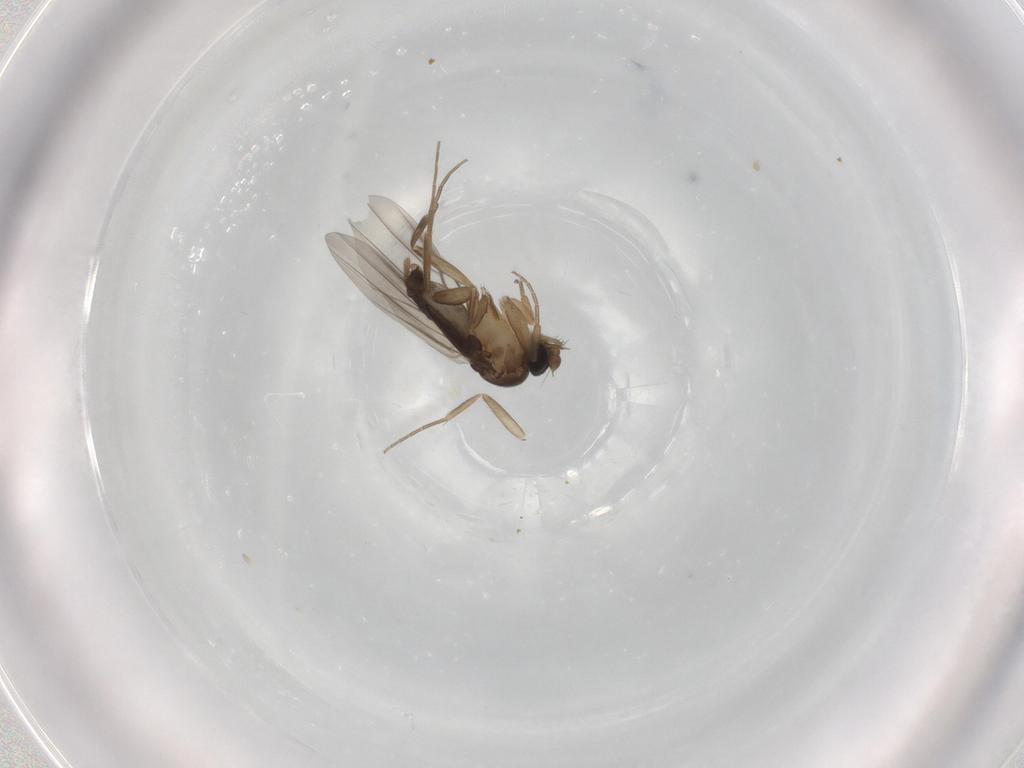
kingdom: Animalia
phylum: Arthropoda
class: Insecta
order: Diptera
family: Phoridae
